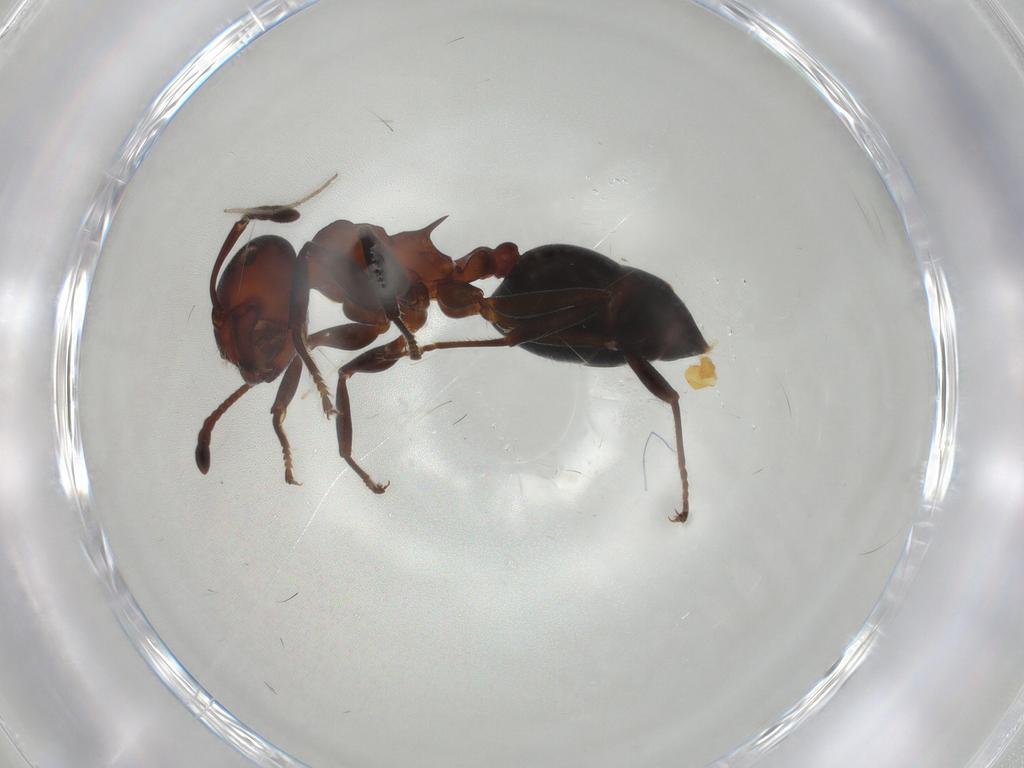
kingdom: Animalia
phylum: Arthropoda
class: Insecta
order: Hymenoptera
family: Formicidae
